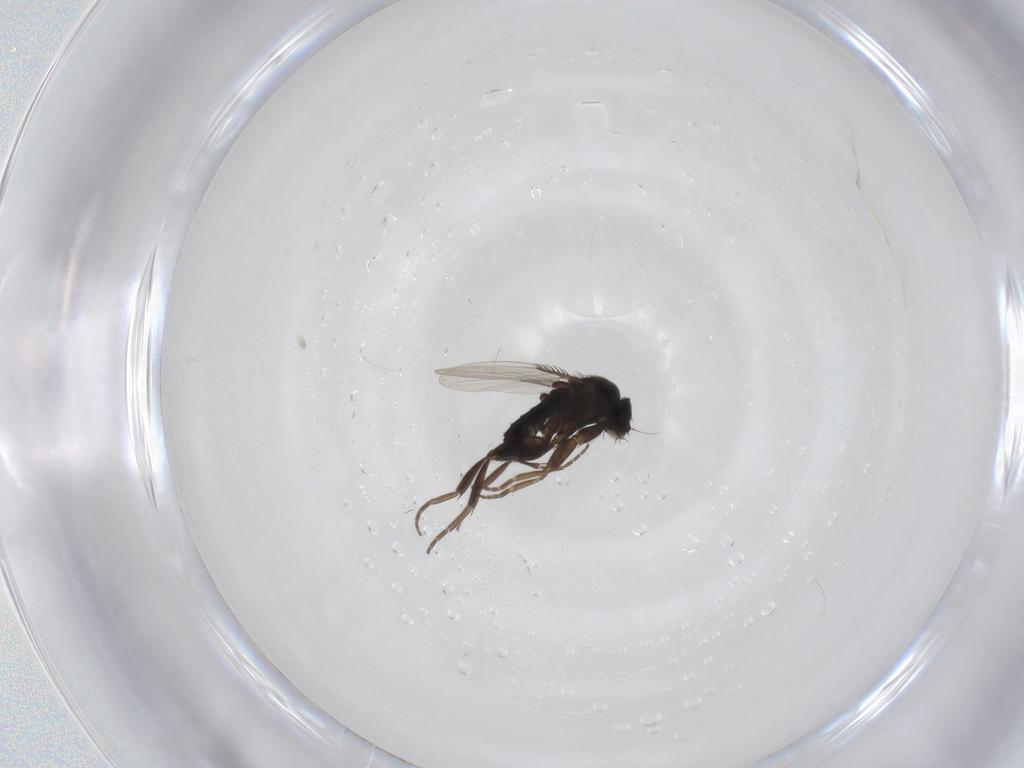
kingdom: Animalia
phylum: Arthropoda
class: Insecta
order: Diptera
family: Phoridae
